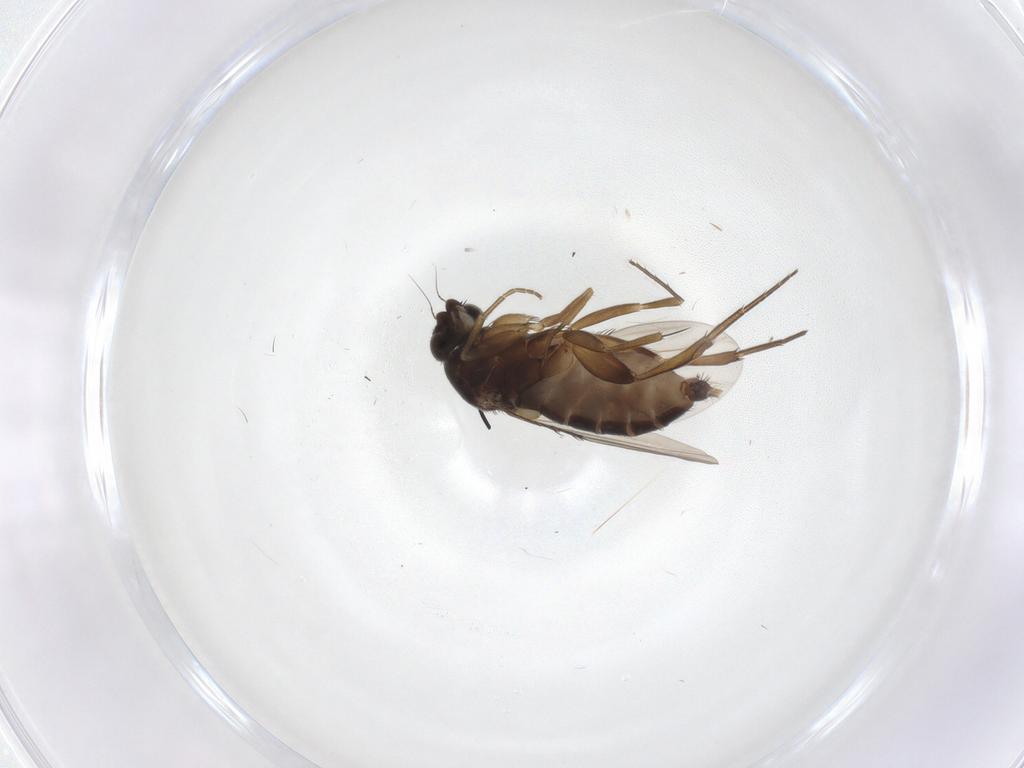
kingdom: Animalia
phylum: Arthropoda
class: Insecta
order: Diptera
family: Phoridae
